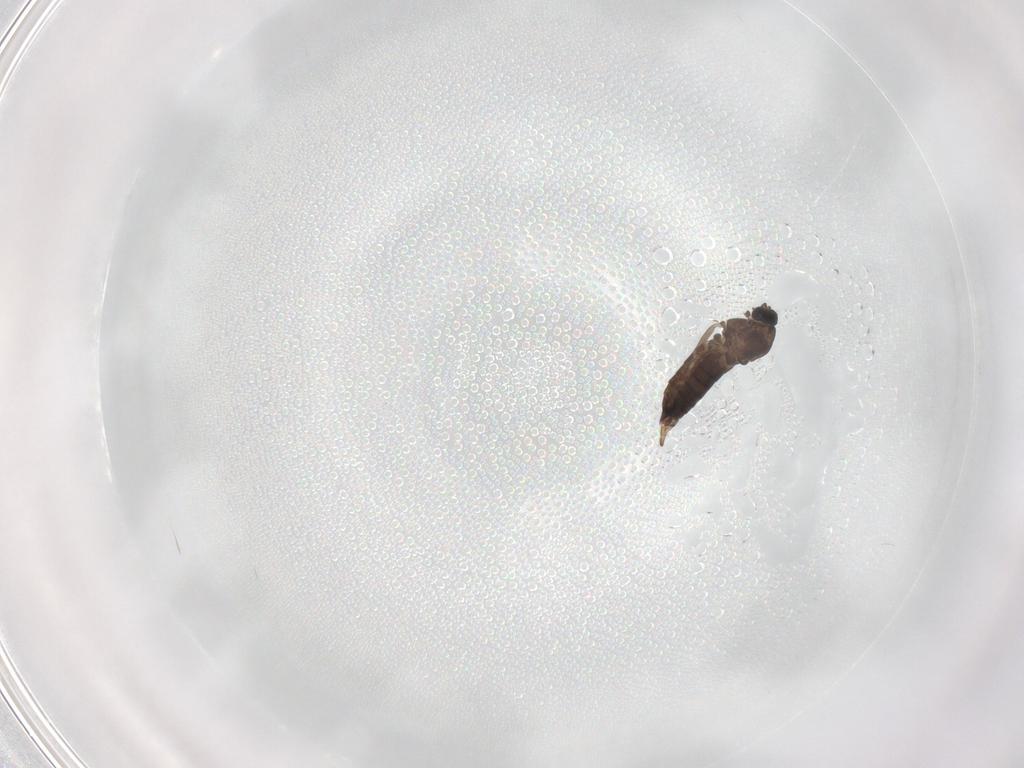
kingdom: Animalia
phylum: Arthropoda
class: Insecta
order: Diptera
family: Cecidomyiidae
